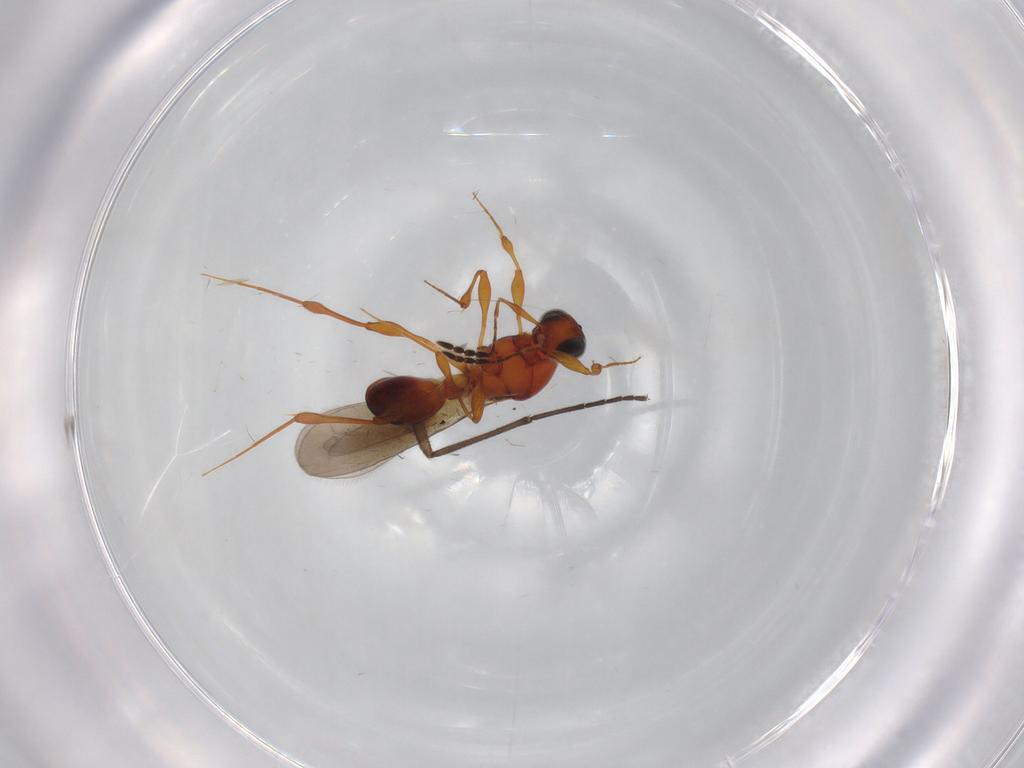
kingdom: Animalia
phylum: Arthropoda
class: Insecta
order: Hymenoptera
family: Platygastridae
